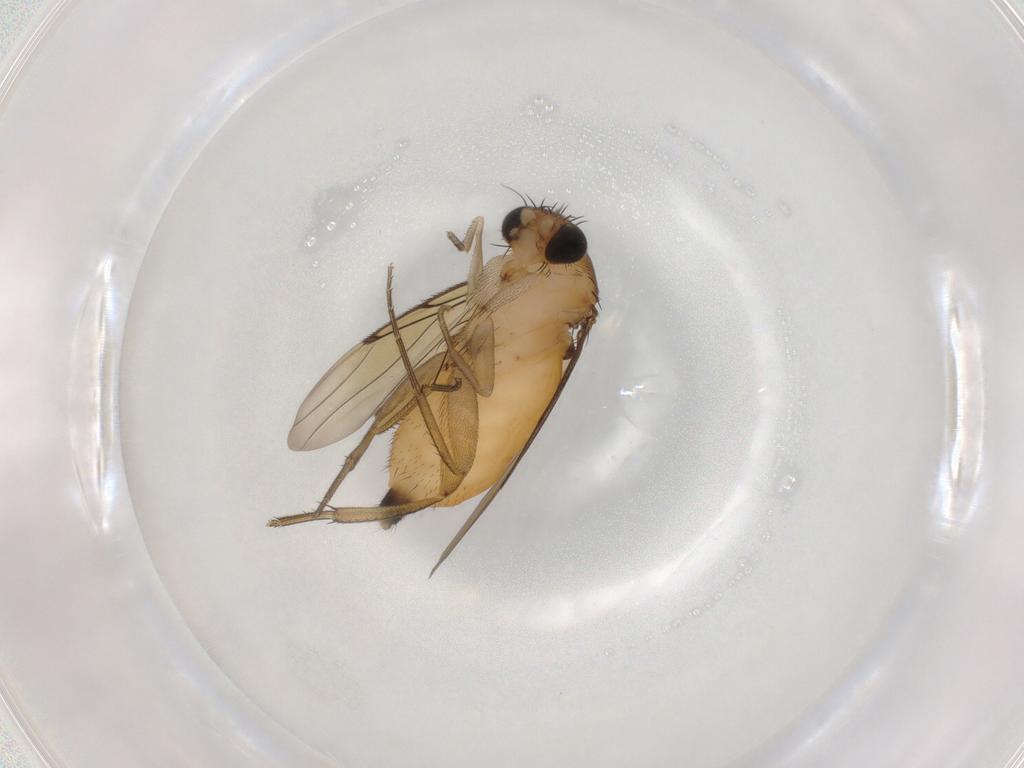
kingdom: Animalia
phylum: Arthropoda
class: Insecta
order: Diptera
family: Phoridae
